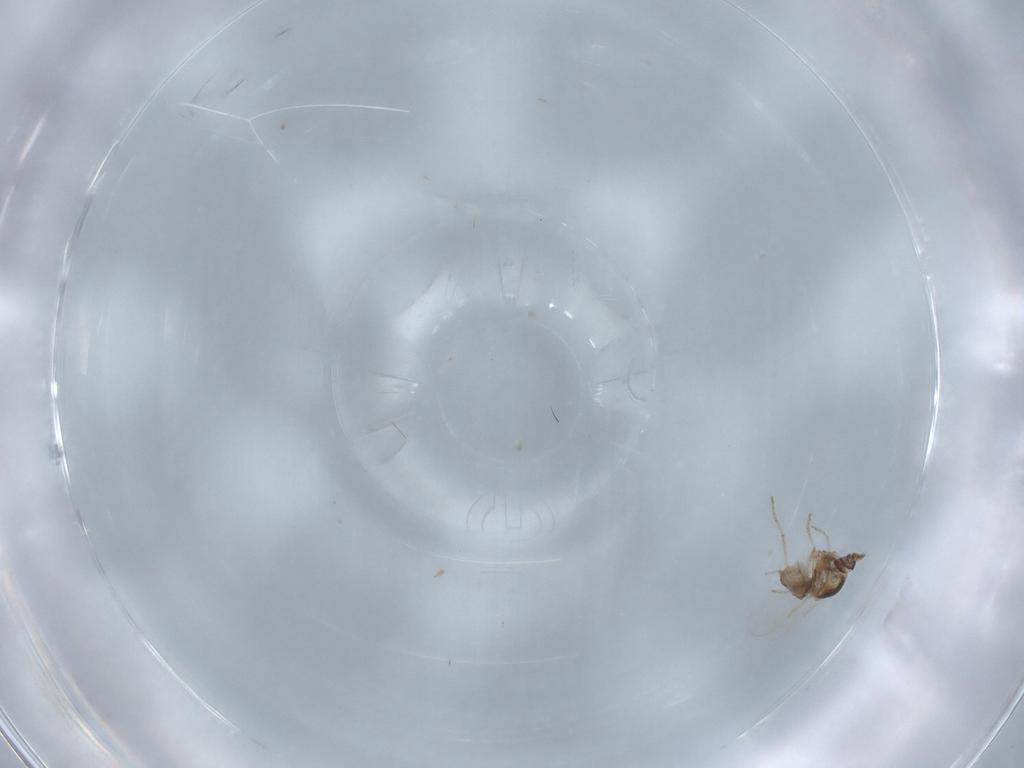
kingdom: Animalia
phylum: Arthropoda
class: Insecta
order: Diptera
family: Ceratopogonidae
